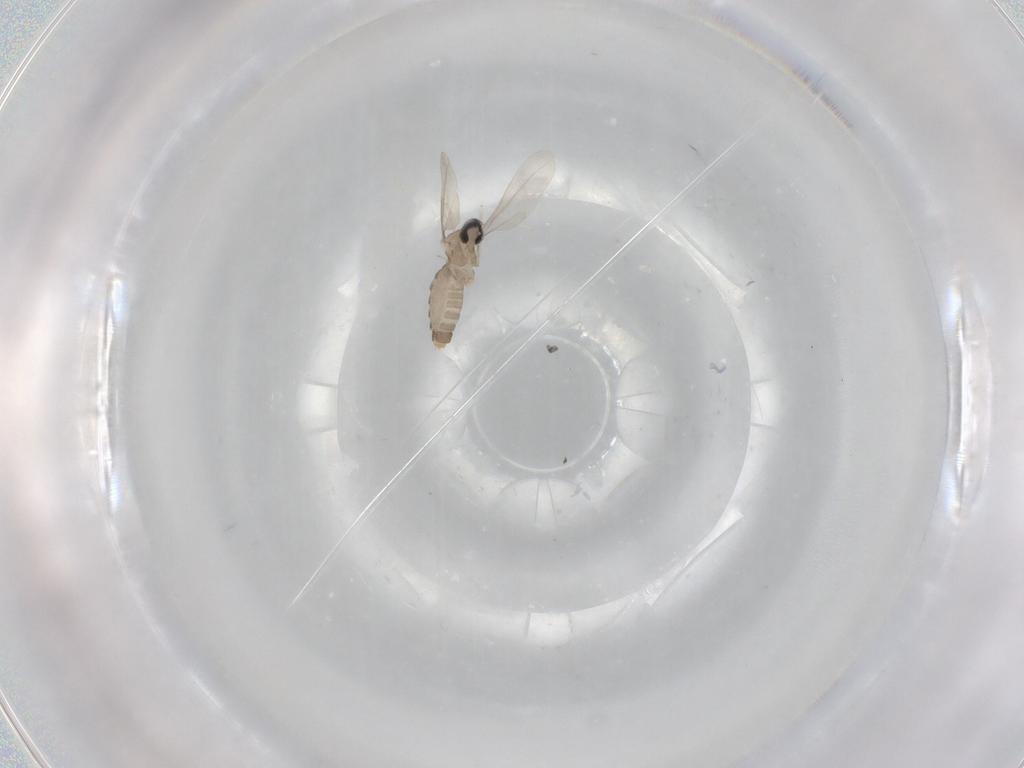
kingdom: Animalia
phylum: Arthropoda
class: Insecta
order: Diptera
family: Cecidomyiidae
